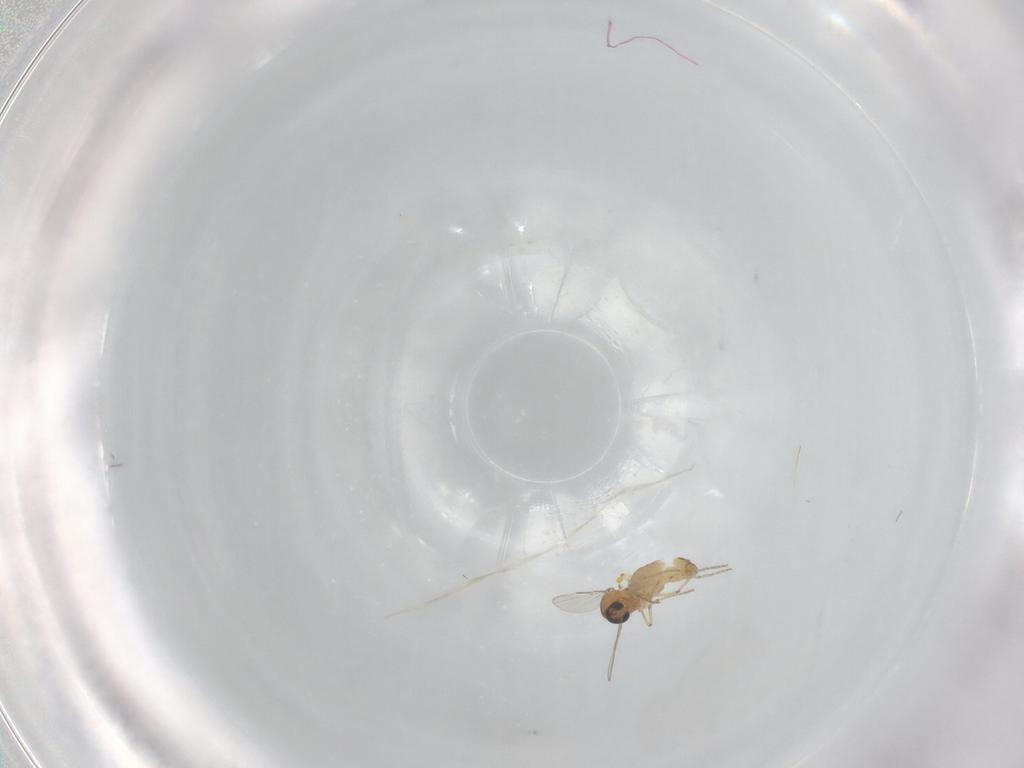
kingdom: Animalia
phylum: Arthropoda
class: Insecta
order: Diptera
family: Ceratopogonidae
